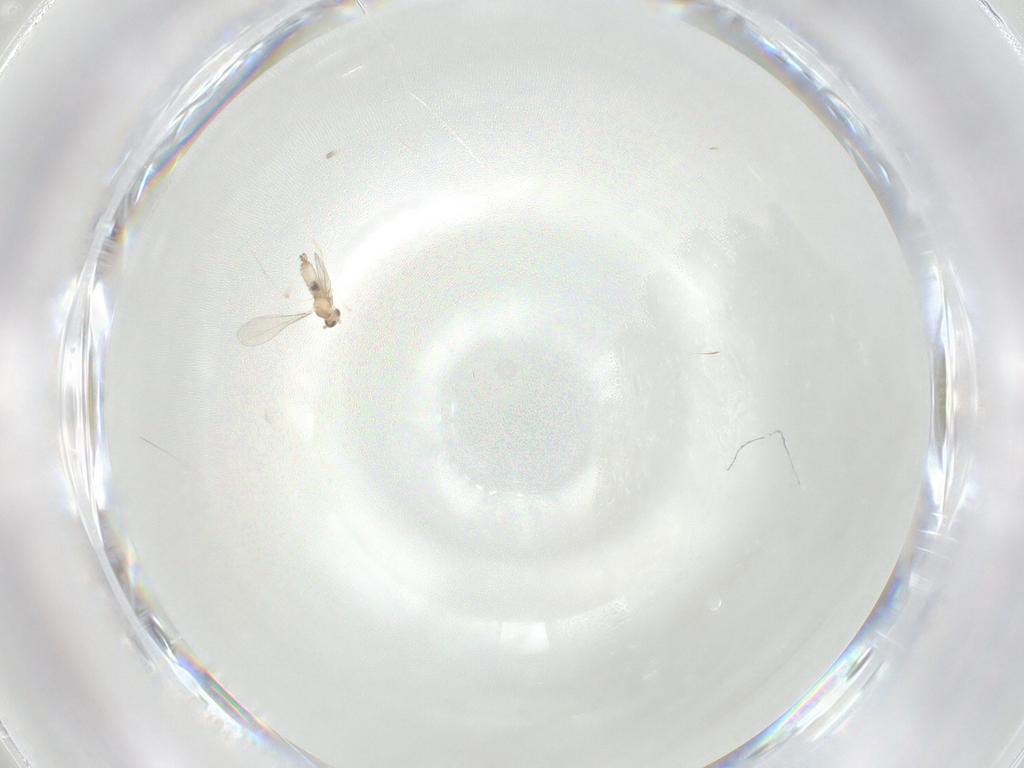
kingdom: Animalia
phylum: Arthropoda
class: Insecta
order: Diptera
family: Cecidomyiidae
